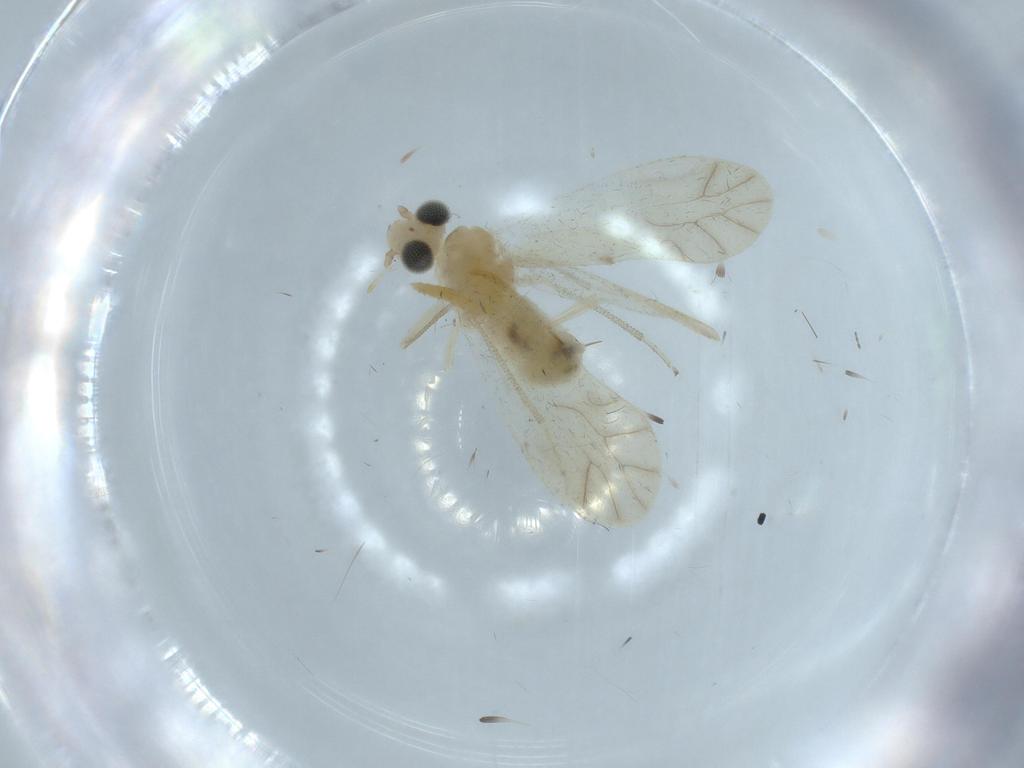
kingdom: Animalia
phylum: Arthropoda
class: Insecta
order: Psocodea
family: Caeciliusidae
